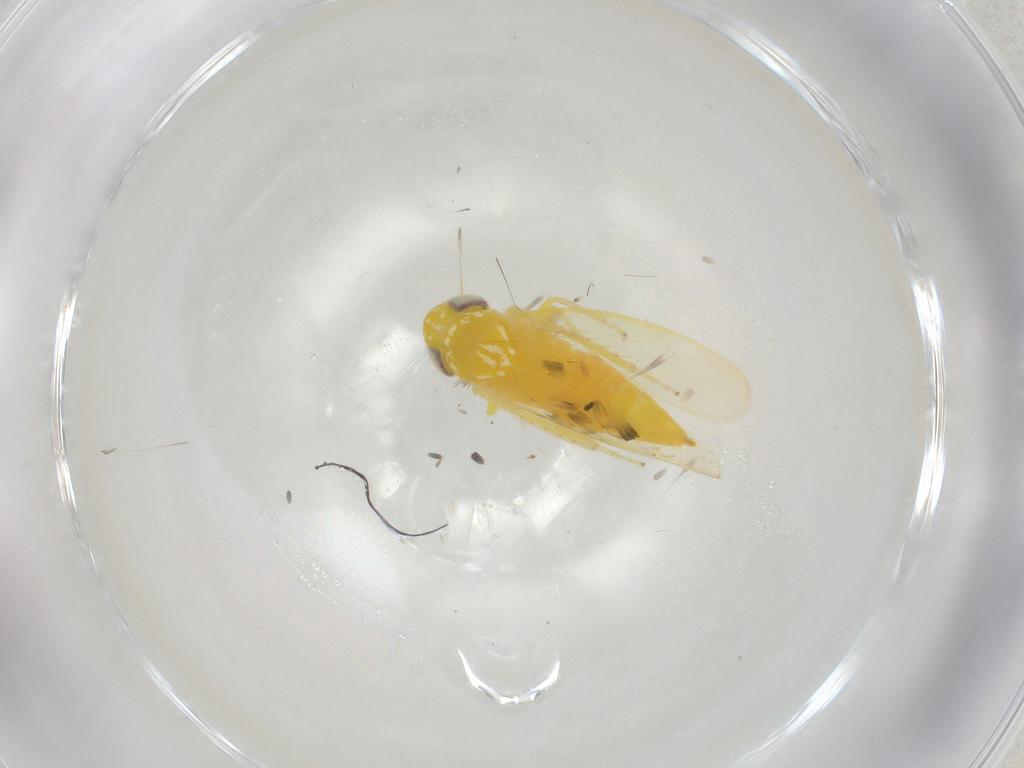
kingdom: Animalia
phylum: Arthropoda
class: Insecta
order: Hemiptera
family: Cicadellidae
